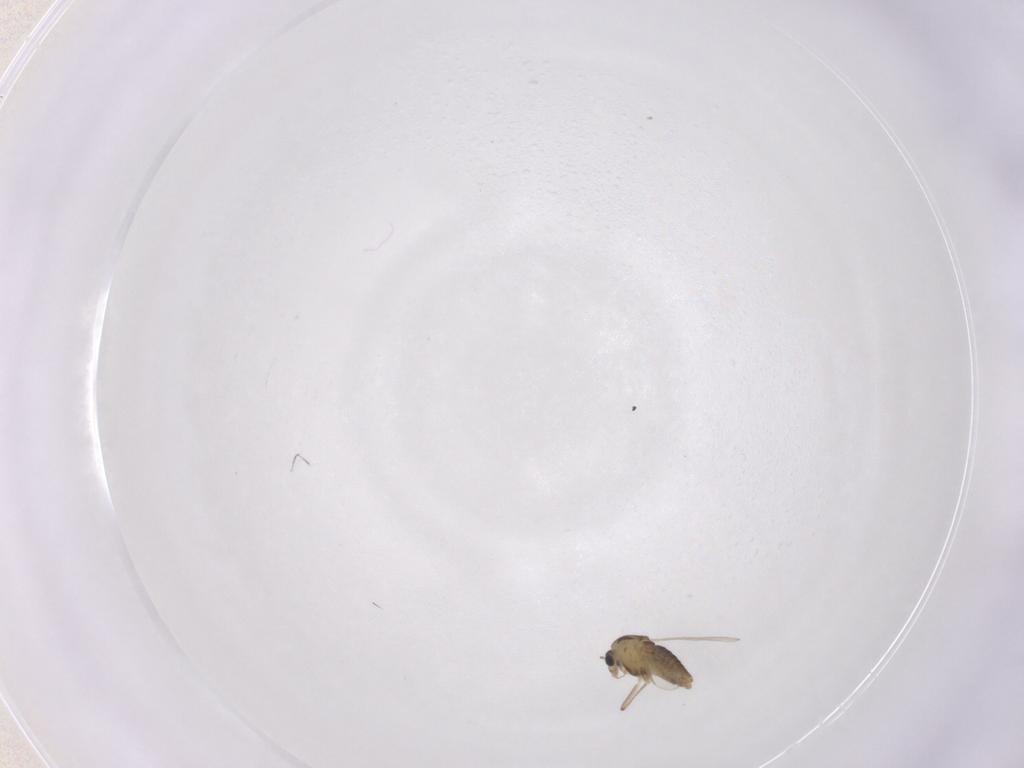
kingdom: Animalia
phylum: Arthropoda
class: Insecta
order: Diptera
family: Chironomidae
